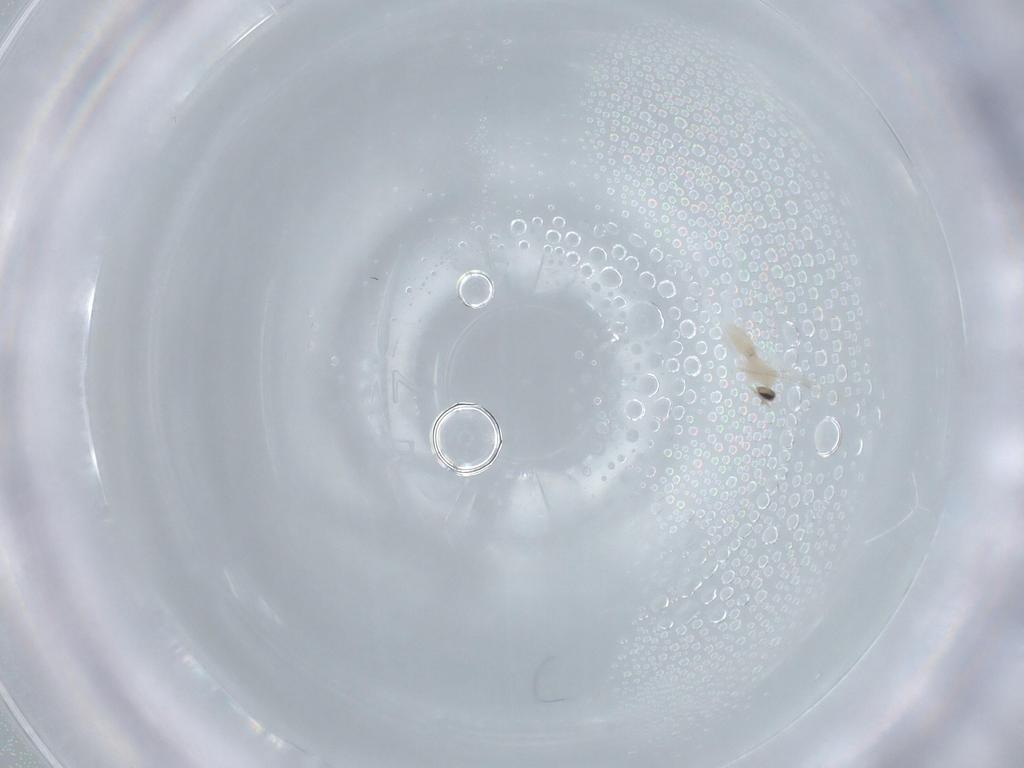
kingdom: Animalia
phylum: Arthropoda
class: Insecta
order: Diptera
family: Cecidomyiidae
